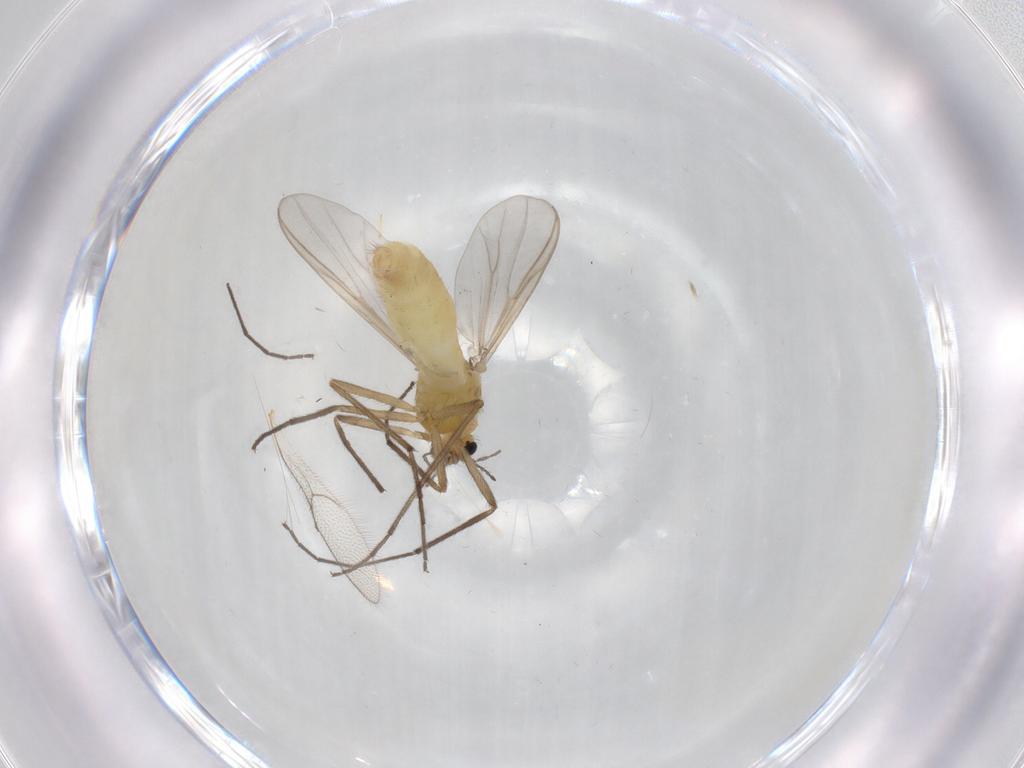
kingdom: Animalia
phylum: Arthropoda
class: Insecta
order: Diptera
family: Chironomidae
